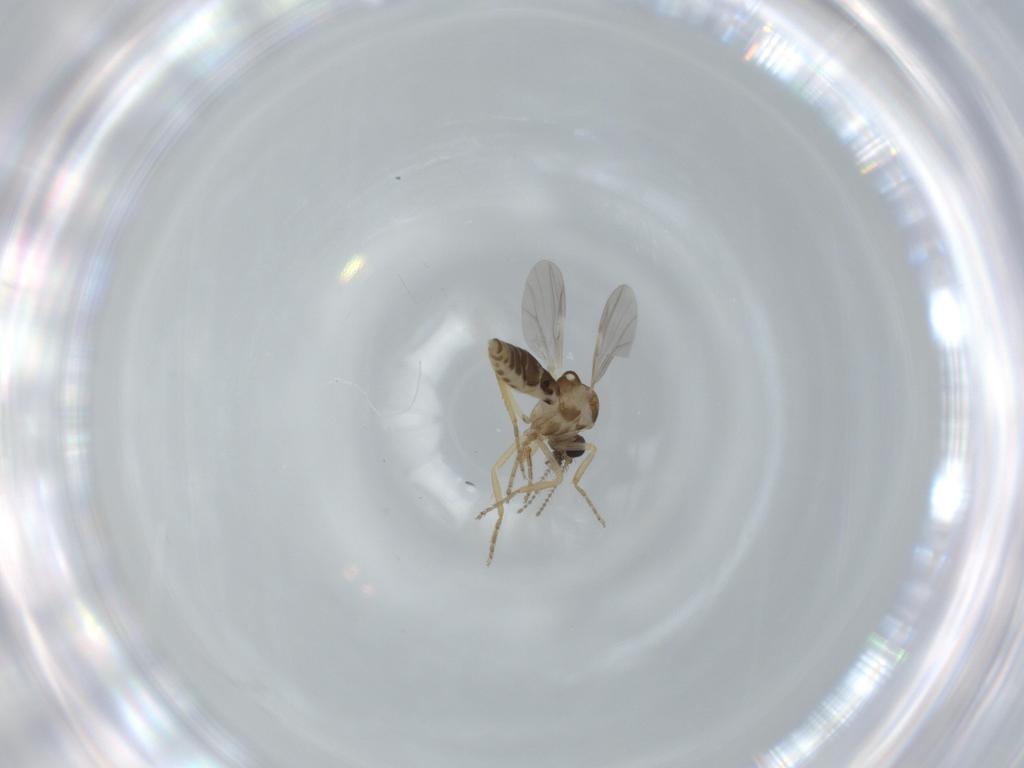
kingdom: Animalia
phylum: Arthropoda
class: Insecta
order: Diptera
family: Ceratopogonidae
